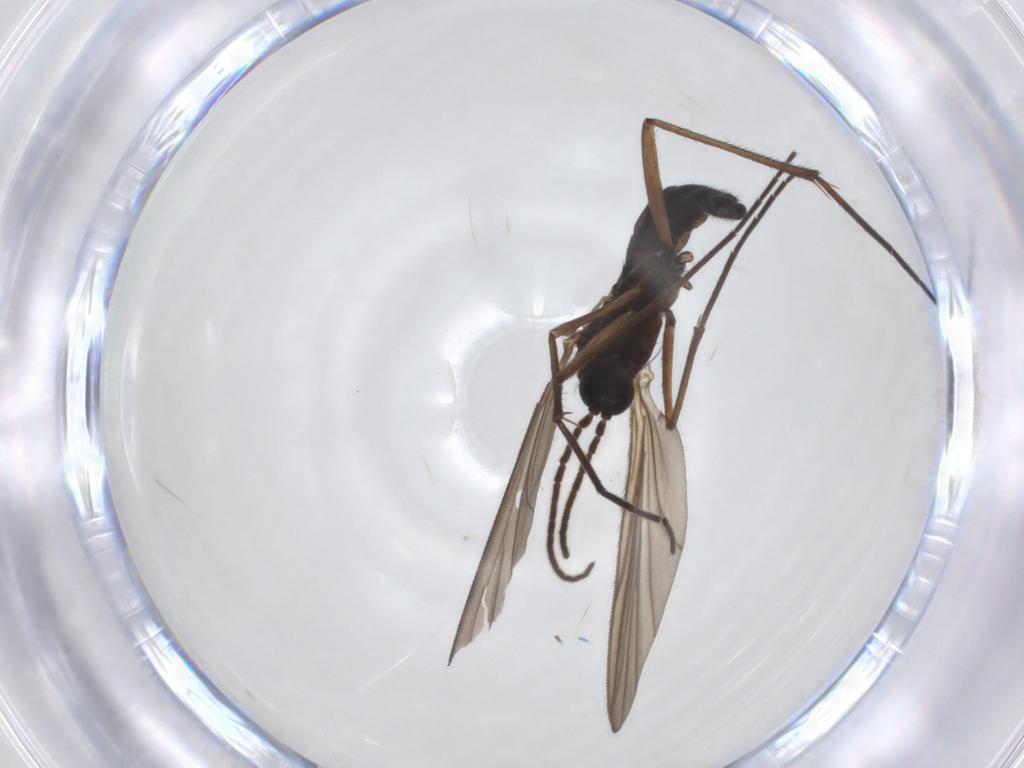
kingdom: Animalia
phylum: Arthropoda
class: Insecta
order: Diptera
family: Sciaridae
